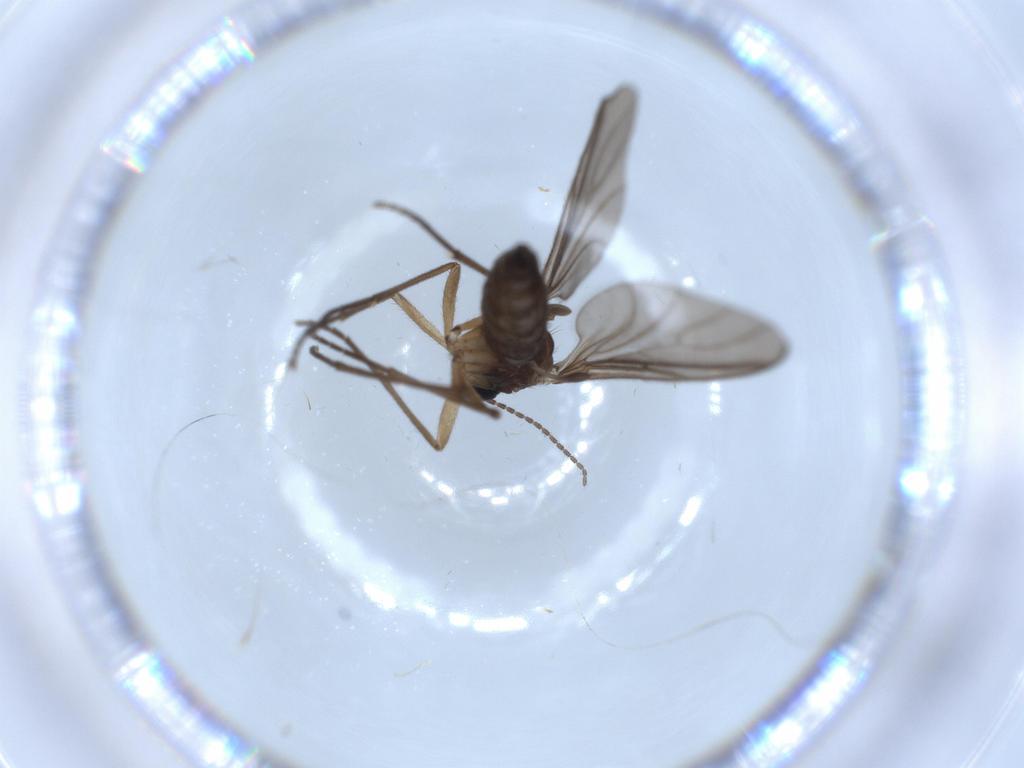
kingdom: Animalia
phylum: Arthropoda
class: Insecta
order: Diptera
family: Sciaridae
